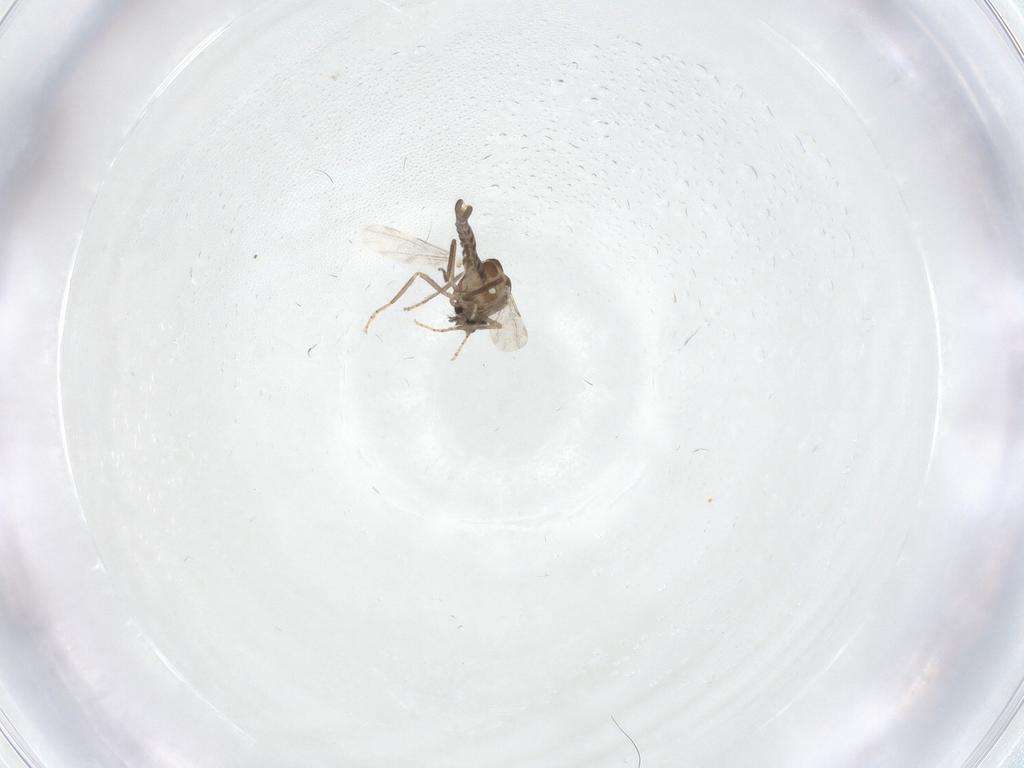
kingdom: Animalia
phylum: Arthropoda
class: Insecta
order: Diptera
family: Ceratopogonidae
